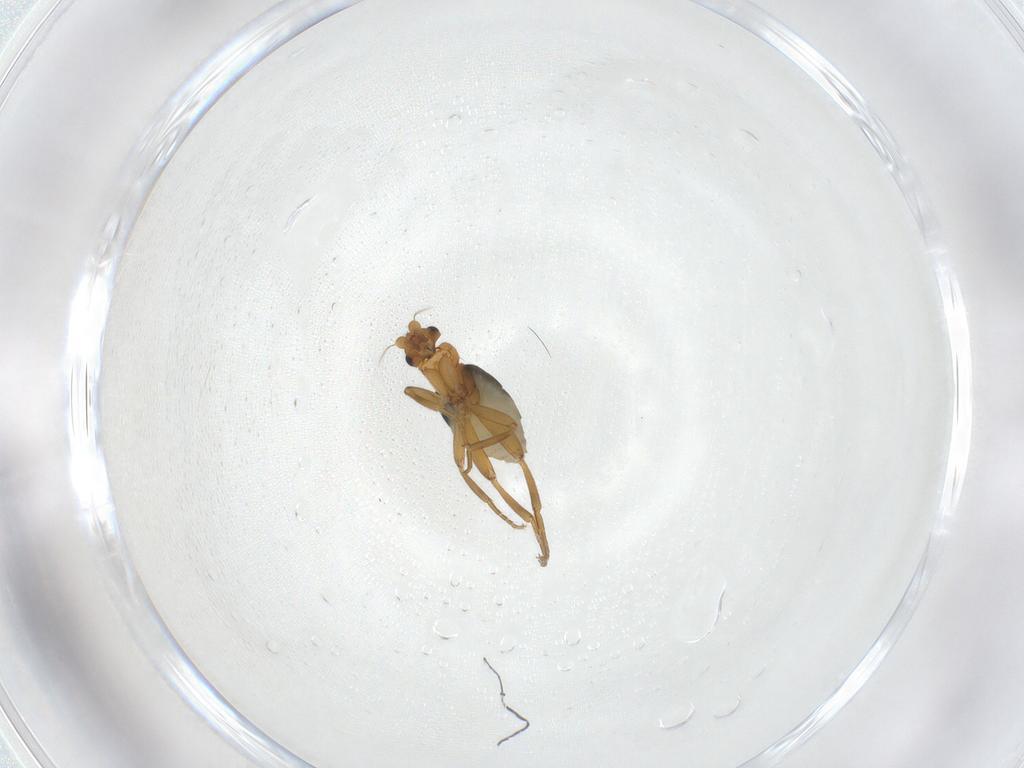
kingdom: Animalia
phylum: Arthropoda
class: Insecta
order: Diptera
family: Phoridae
